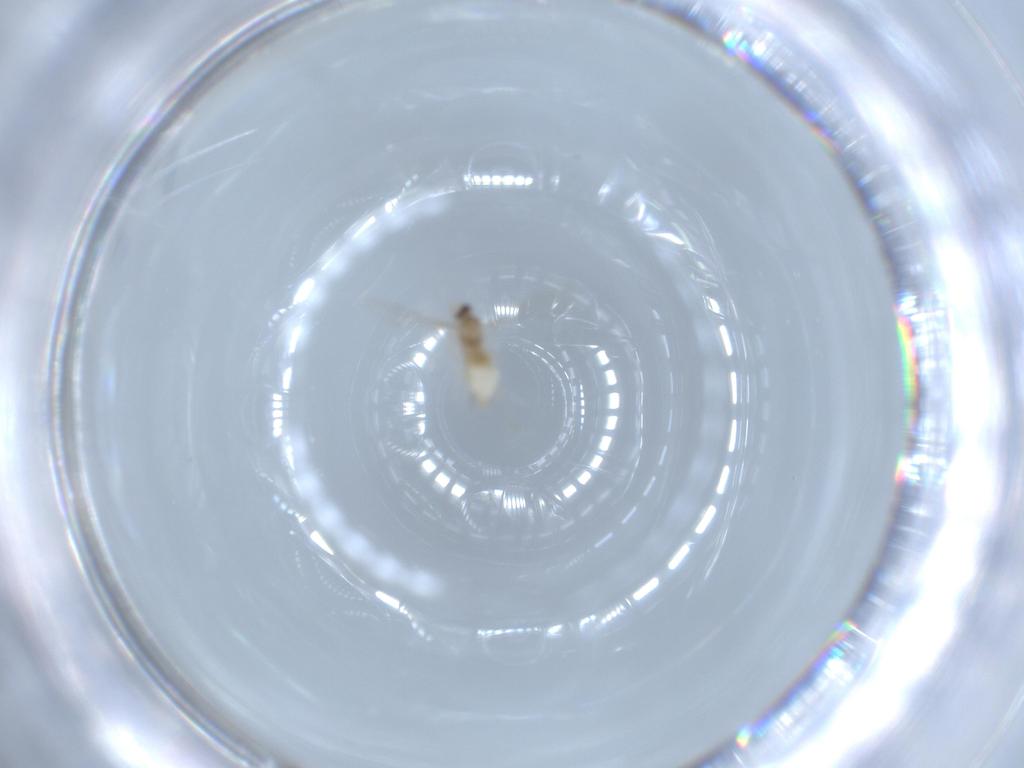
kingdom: Animalia
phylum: Arthropoda
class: Insecta
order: Diptera
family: Cecidomyiidae
